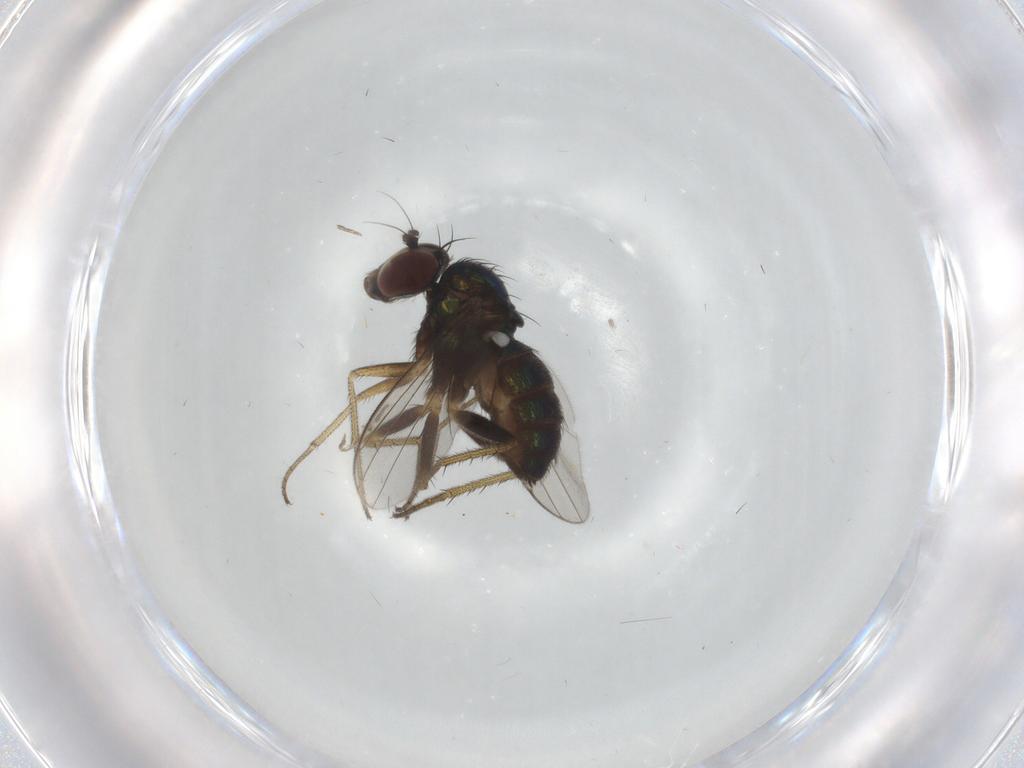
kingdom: Animalia
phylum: Arthropoda
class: Insecta
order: Diptera
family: Dolichopodidae
